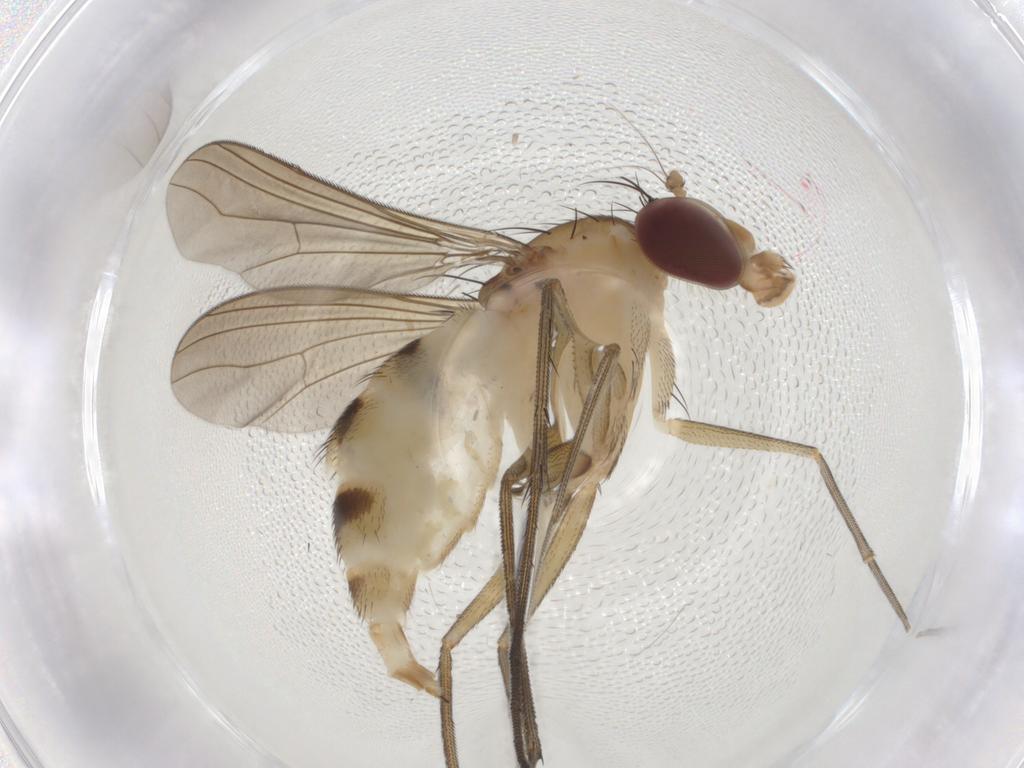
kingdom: Animalia
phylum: Arthropoda
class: Insecta
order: Diptera
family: Dolichopodidae
